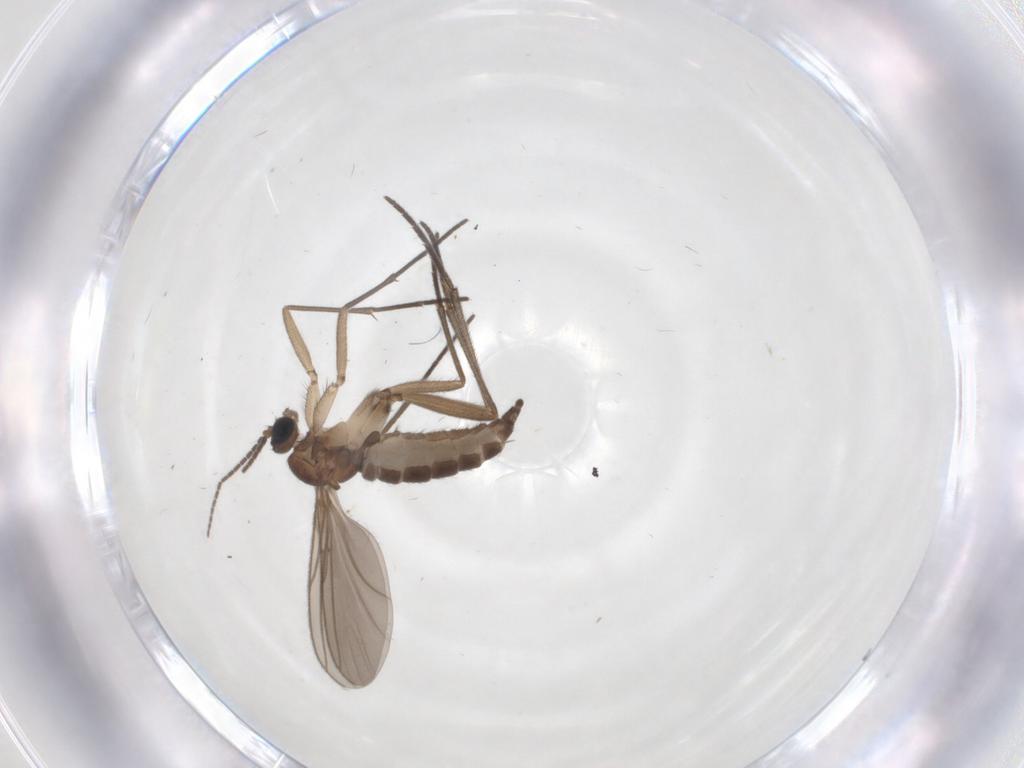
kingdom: Animalia
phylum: Arthropoda
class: Insecta
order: Diptera
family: Sciaridae
